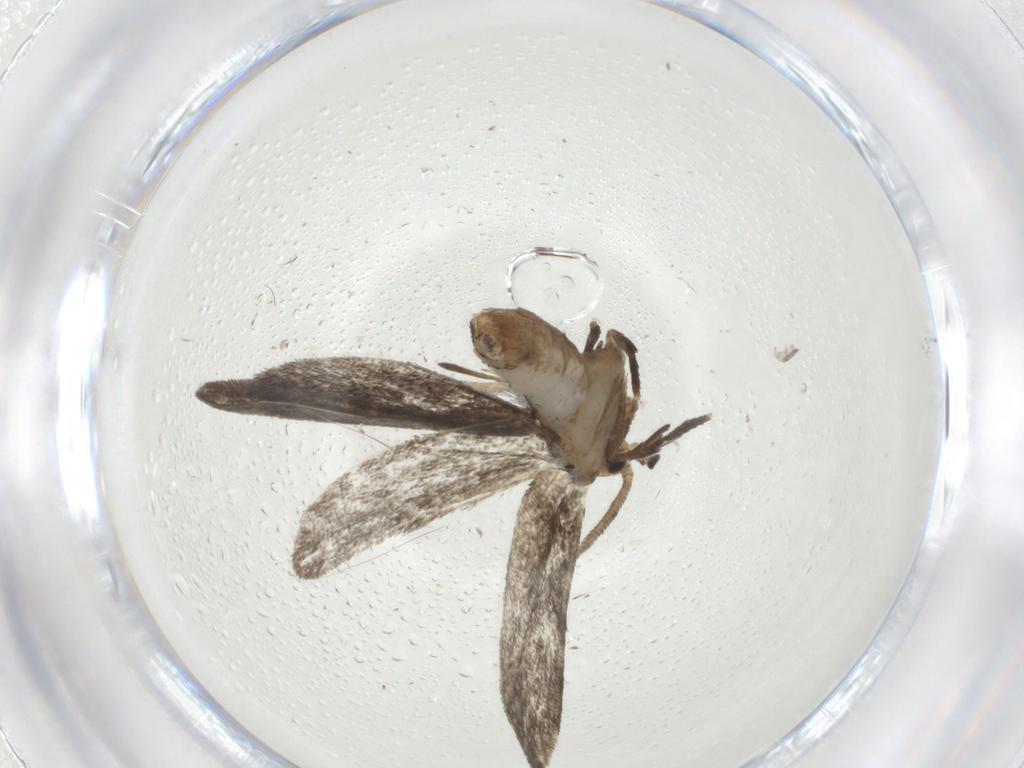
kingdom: Animalia
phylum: Arthropoda
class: Insecta
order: Lepidoptera
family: Dryadaulidae
